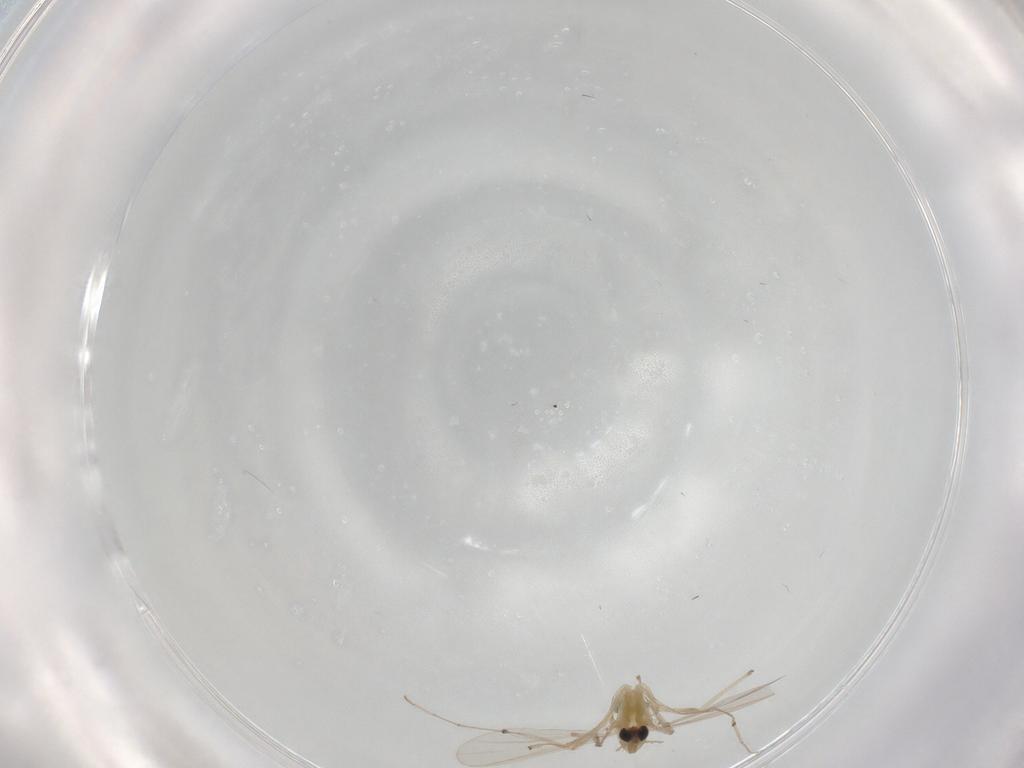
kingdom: Animalia
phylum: Arthropoda
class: Insecta
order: Diptera
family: Chironomidae
